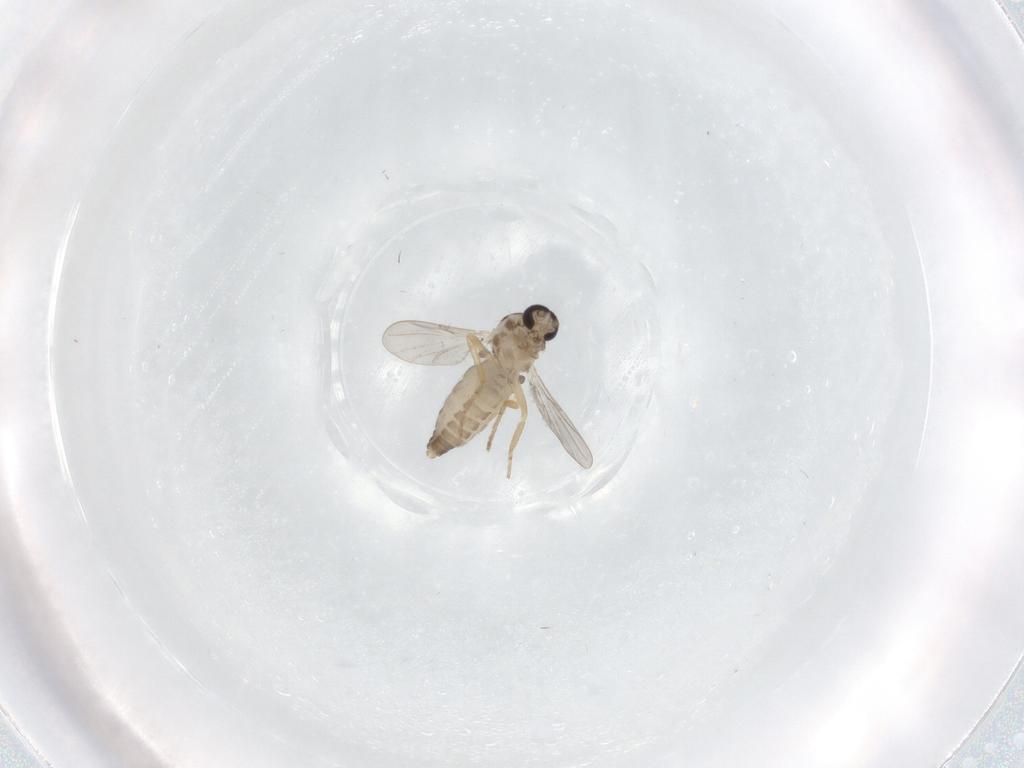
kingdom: Animalia
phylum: Arthropoda
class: Insecta
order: Diptera
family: Ceratopogonidae
